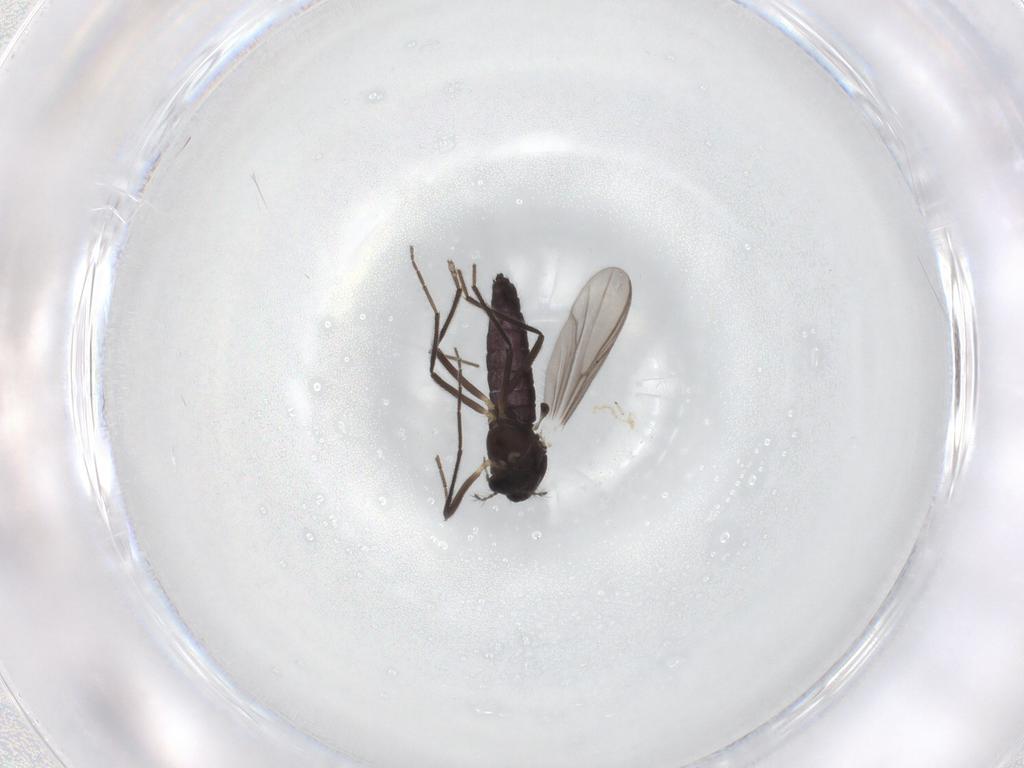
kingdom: Animalia
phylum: Arthropoda
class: Insecta
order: Diptera
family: Chironomidae
